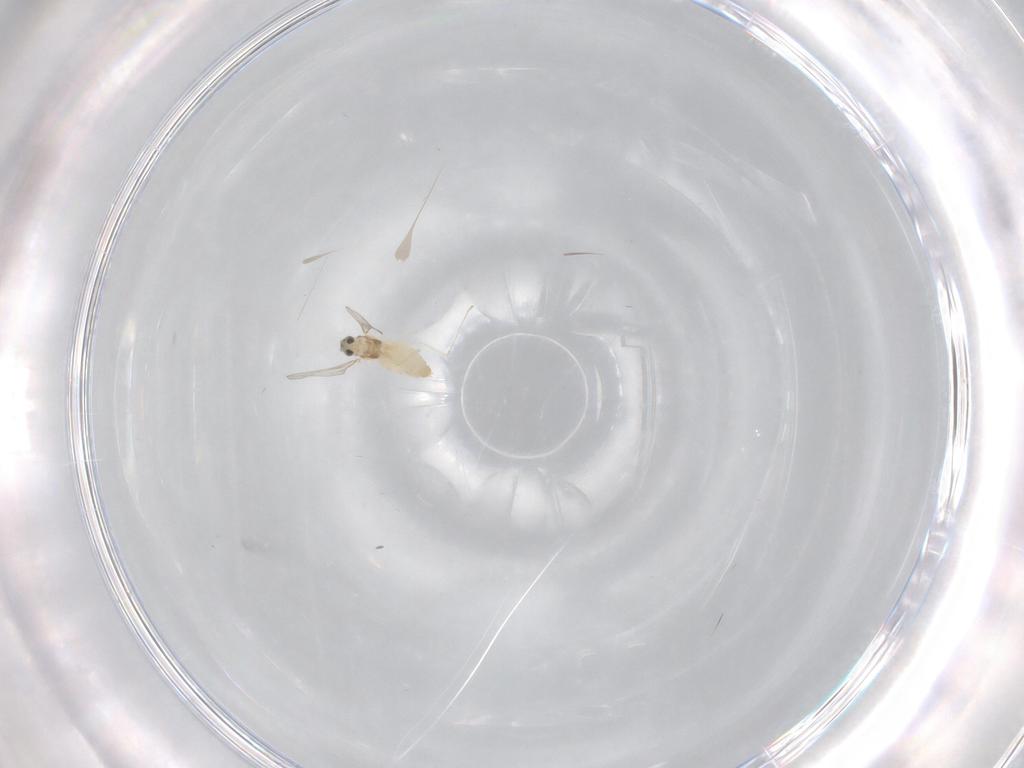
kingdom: Animalia
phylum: Arthropoda
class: Insecta
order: Diptera
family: Cecidomyiidae
